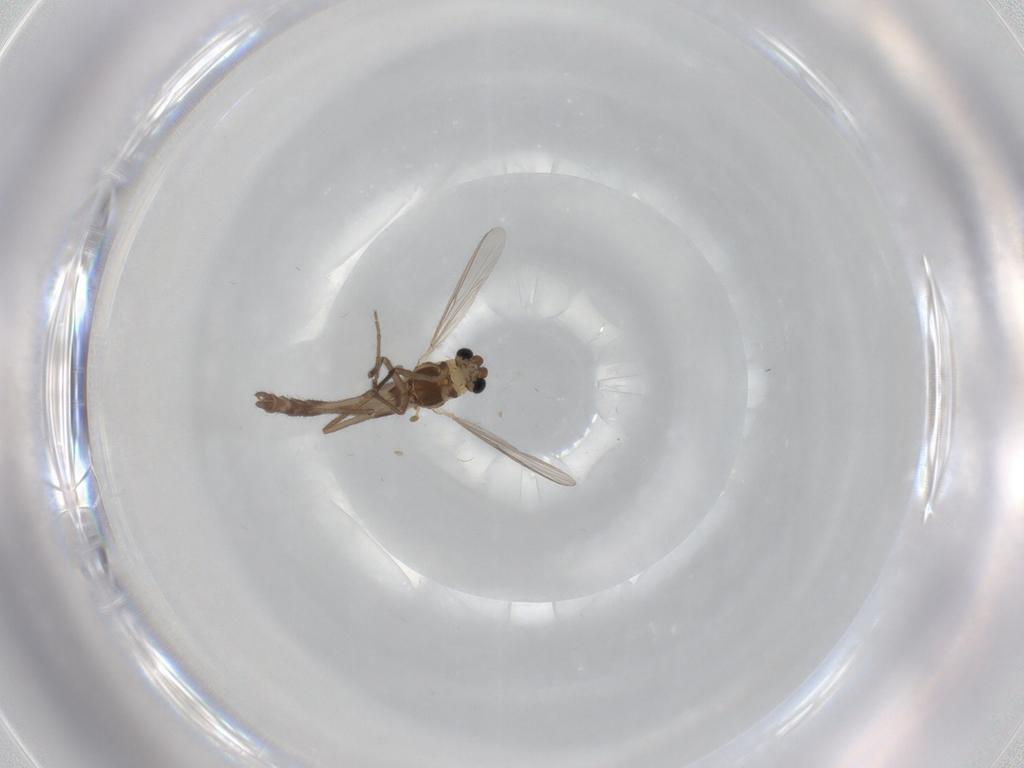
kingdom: Animalia
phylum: Arthropoda
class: Insecta
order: Diptera
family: Chironomidae
